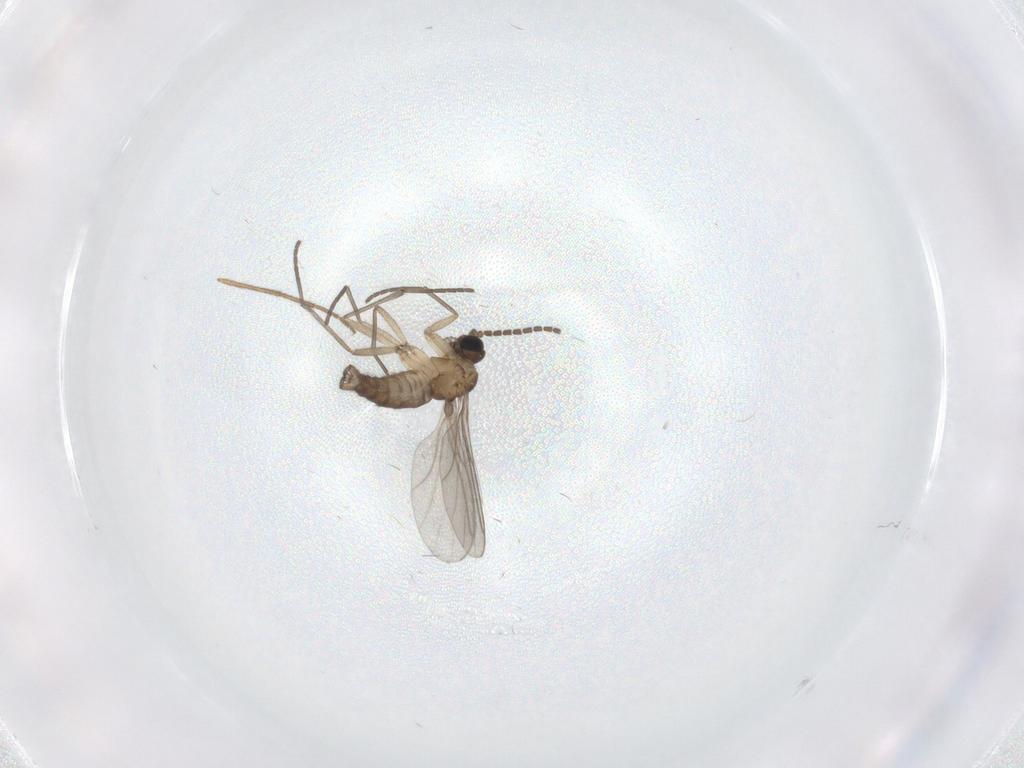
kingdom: Animalia
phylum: Arthropoda
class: Insecta
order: Diptera
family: Sciaridae
